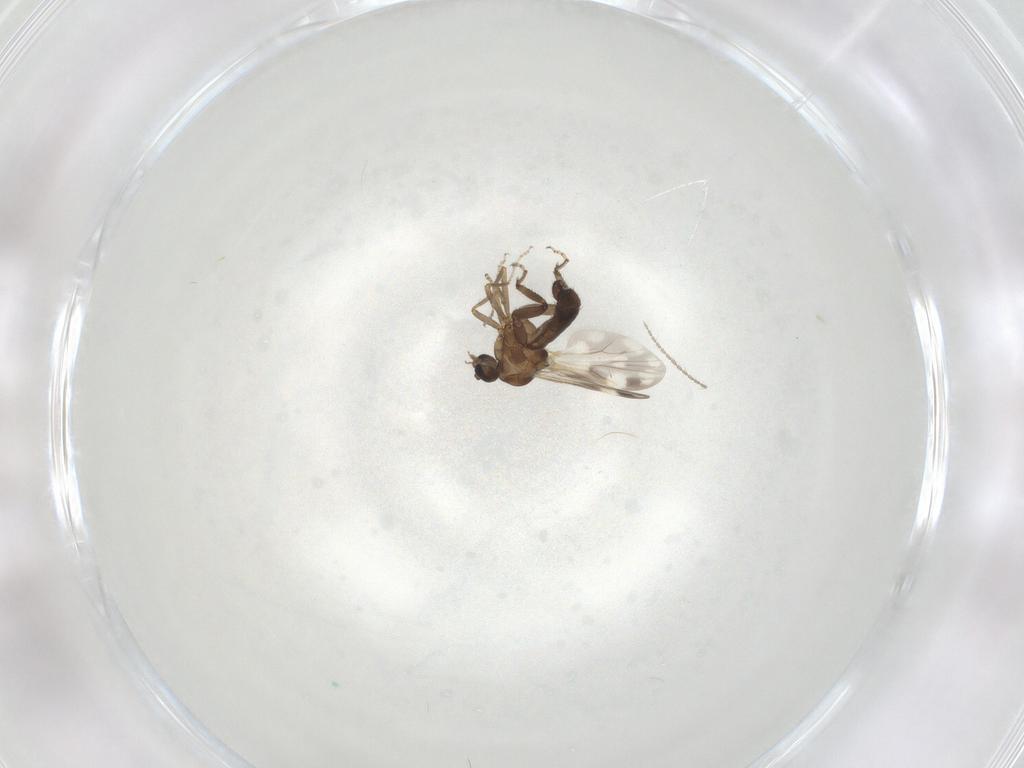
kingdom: Animalia
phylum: Arthropoda
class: Insecta
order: Diptera
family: Ceratopogonidae
